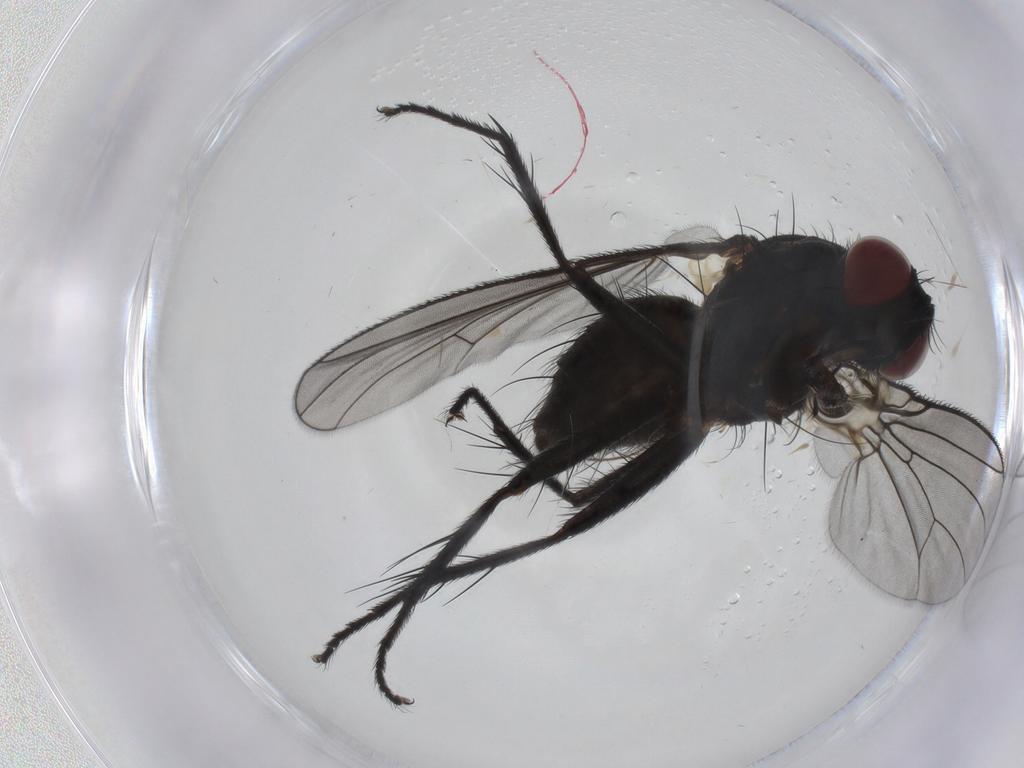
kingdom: Animalia
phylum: Arthropoda
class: Insecta
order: Diptera
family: Muscidae
